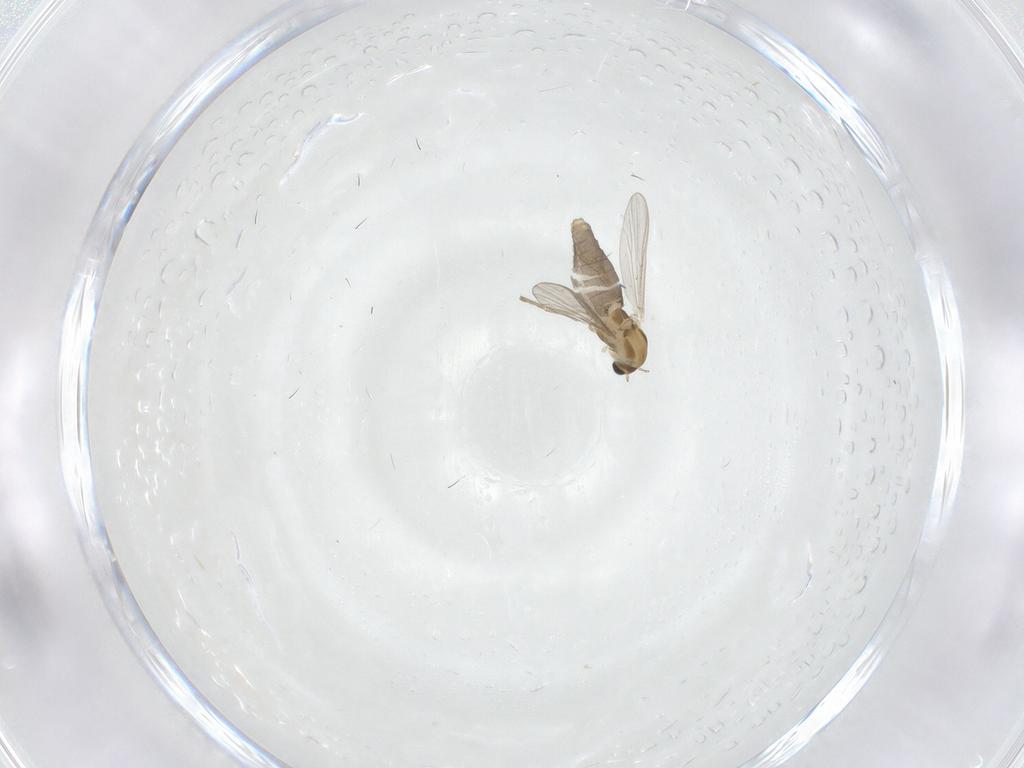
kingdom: Animalia
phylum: Arthropoda
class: Insecta
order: Diptera
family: Chironomidae
